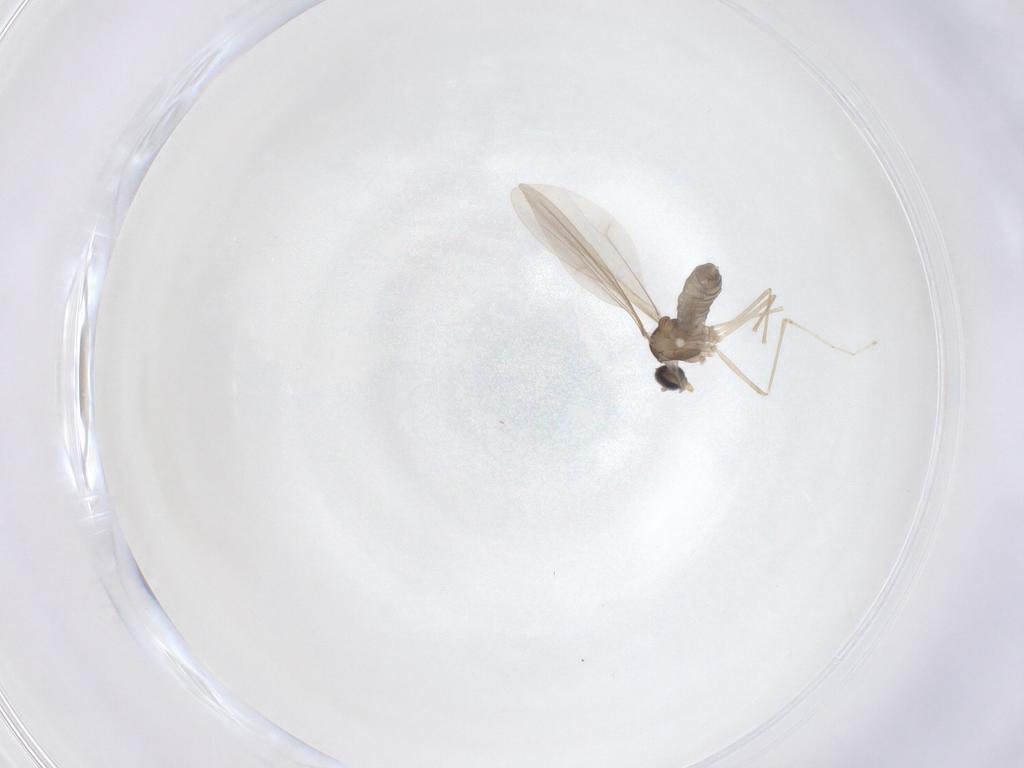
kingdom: Animalia
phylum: Arthropoda
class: Insecta
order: Diptera
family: Cecidomyiidae
